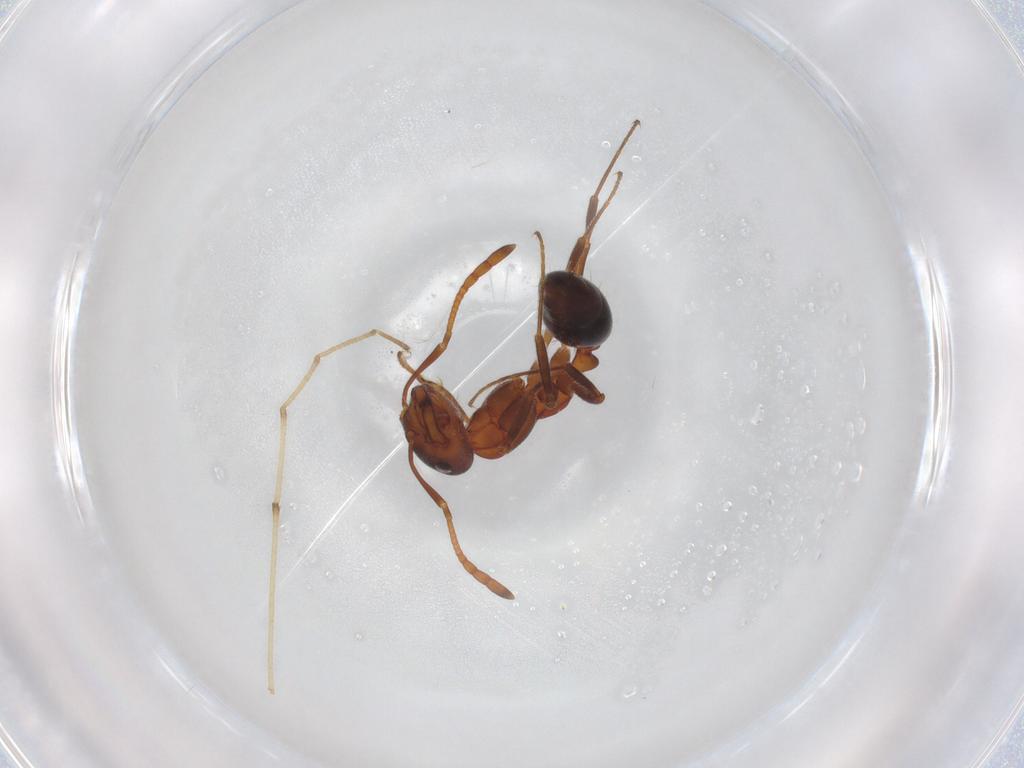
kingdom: Animalia
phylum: Arthropoda
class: Insecta
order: Hymenoptera
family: Formicidae
